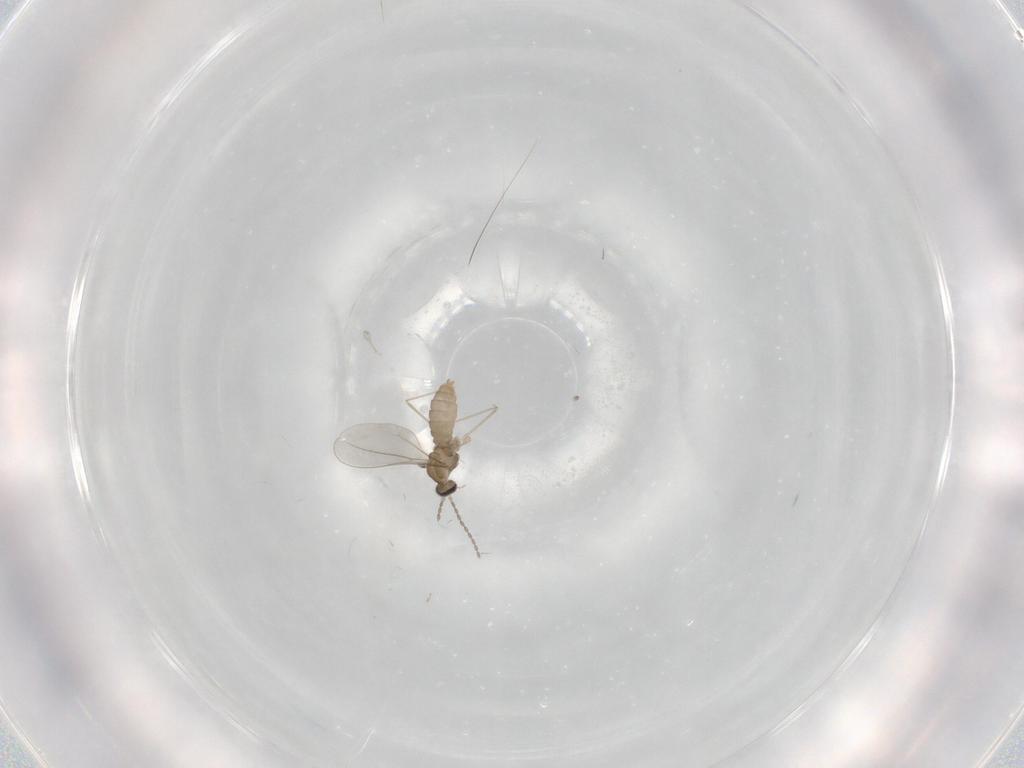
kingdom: Animalia
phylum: Arthropoda
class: Insecta
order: Diptera
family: Cecidomyiidae
